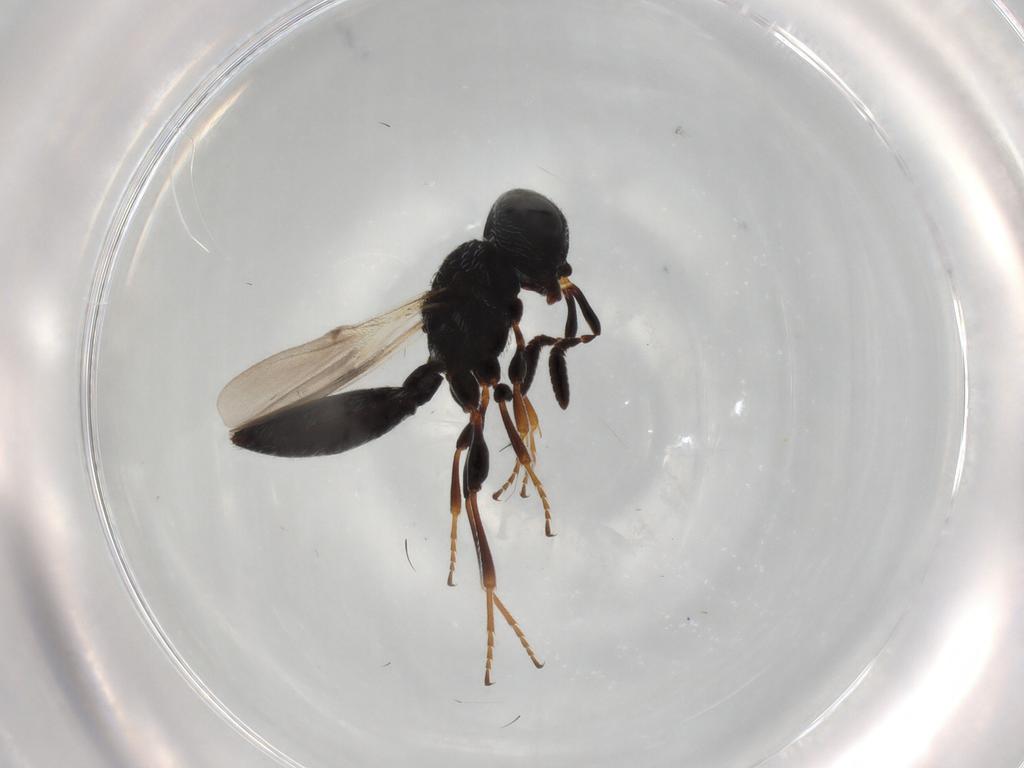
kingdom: Animalia
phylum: Arthropoda
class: Insecta
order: Hymenoptera
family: Scelionidae
